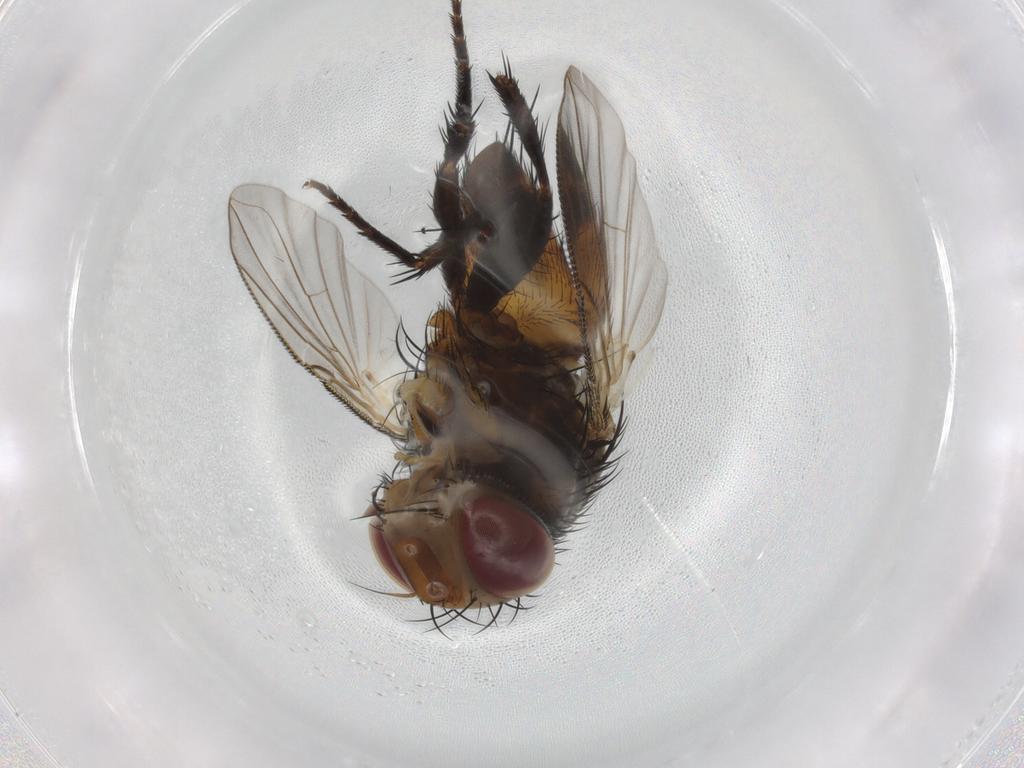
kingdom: Animalia
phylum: Arthropoda
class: Insecta
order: Diptera
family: Tachinidae
